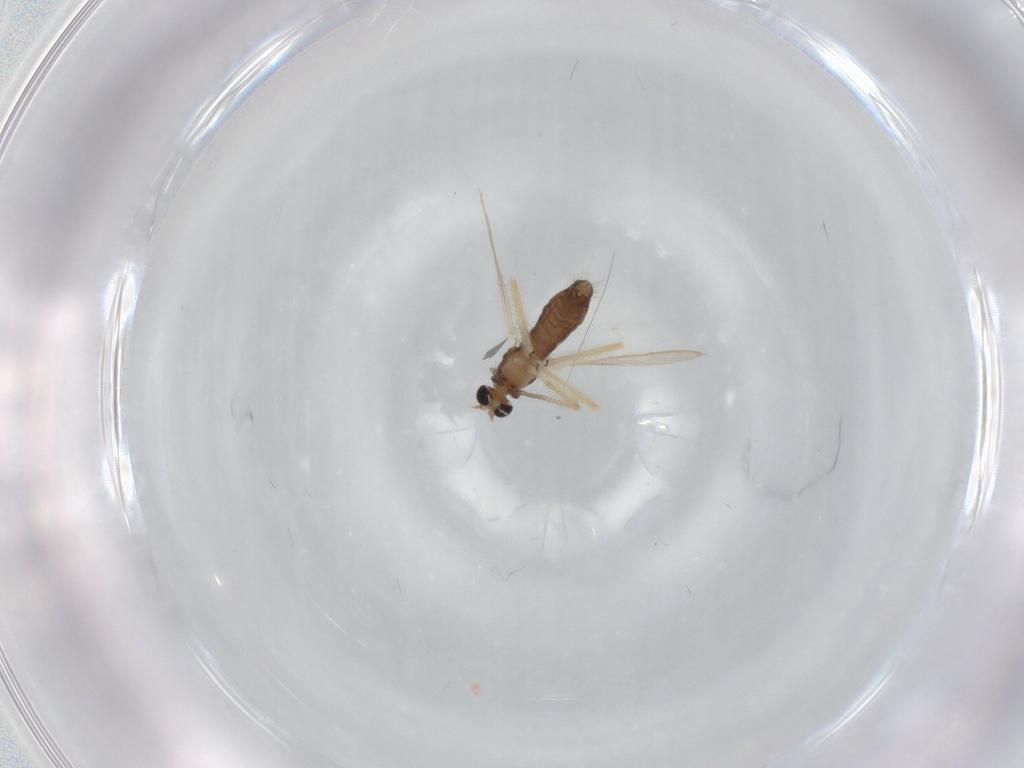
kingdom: Animalia
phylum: Arthropoda
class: Insecta
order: Diptera
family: Chironomidae
